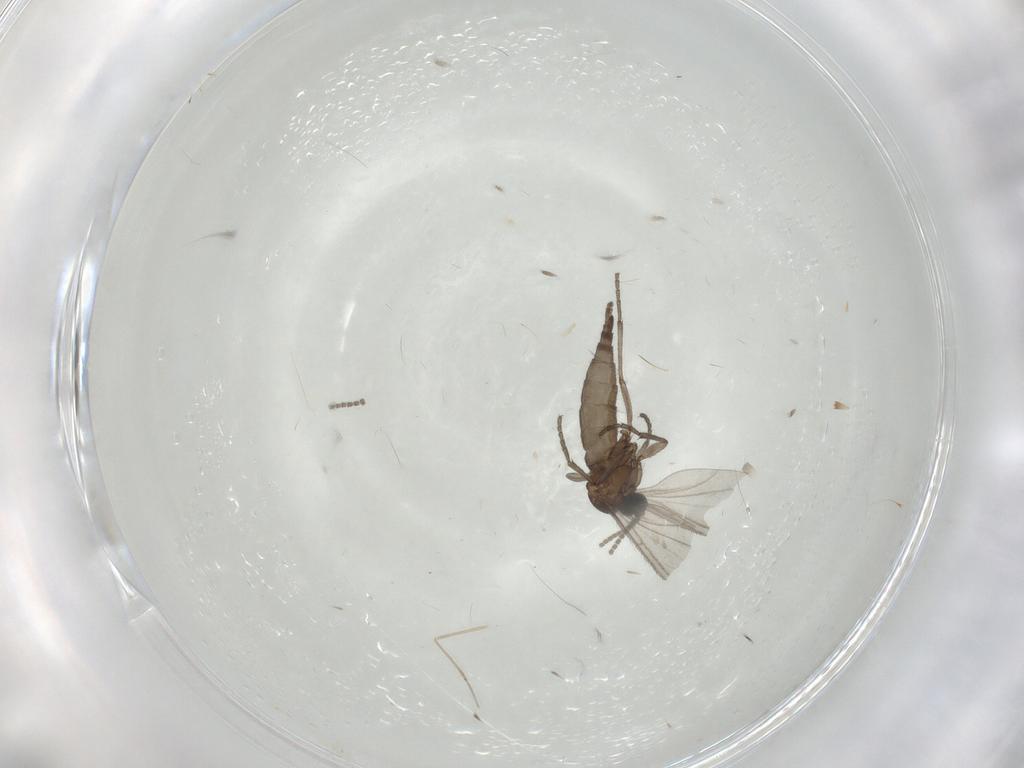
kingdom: Animalia
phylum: Arthropoda
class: Insecta
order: Diptera
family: Sciaridae
